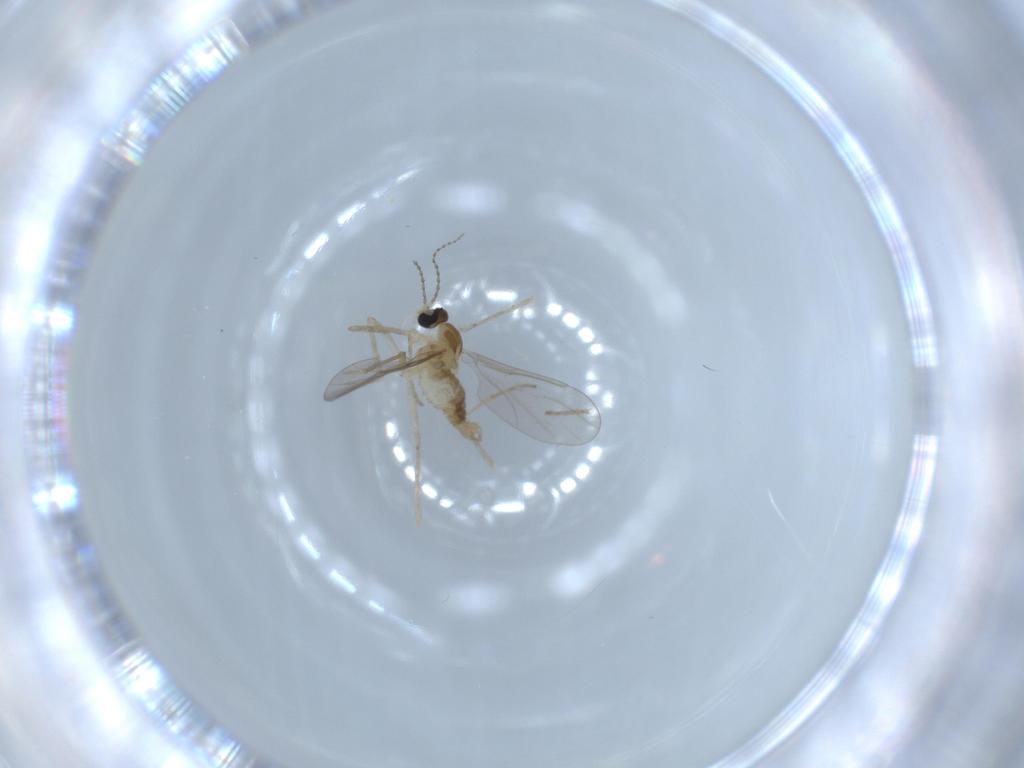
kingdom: Animalia
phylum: Arthropoda
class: Insecta
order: Diptera
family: Cecidomyiidae
